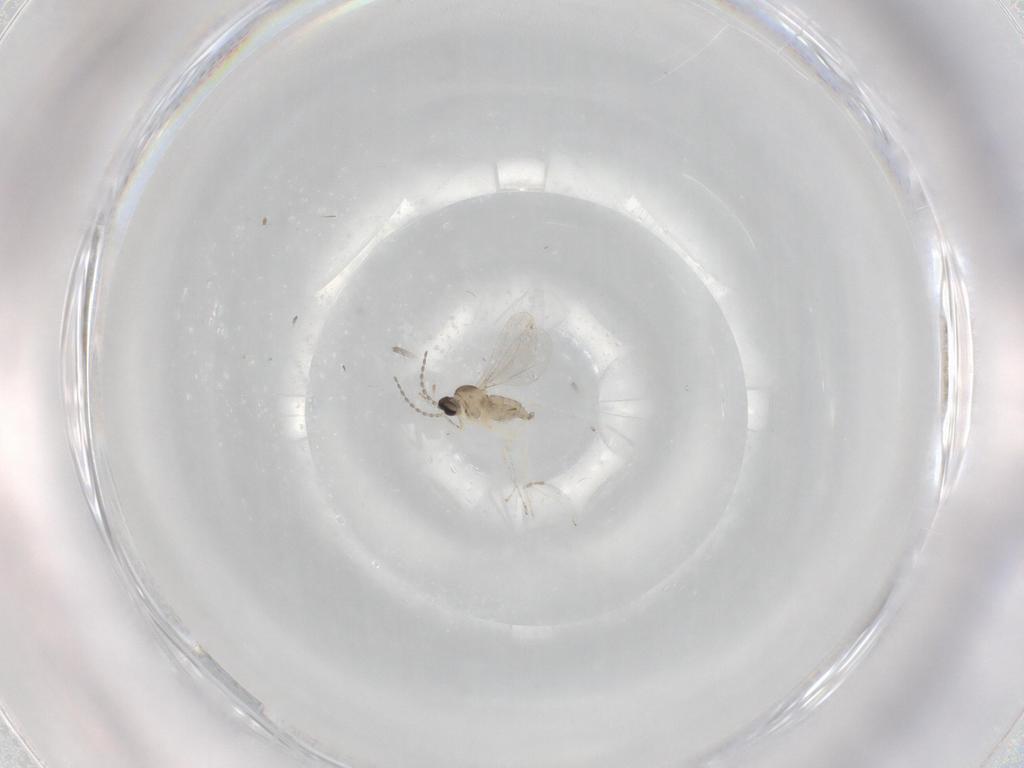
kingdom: Animalia
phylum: Arthropoda
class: Insecta
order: Diptera
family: Cecidomyiidae
